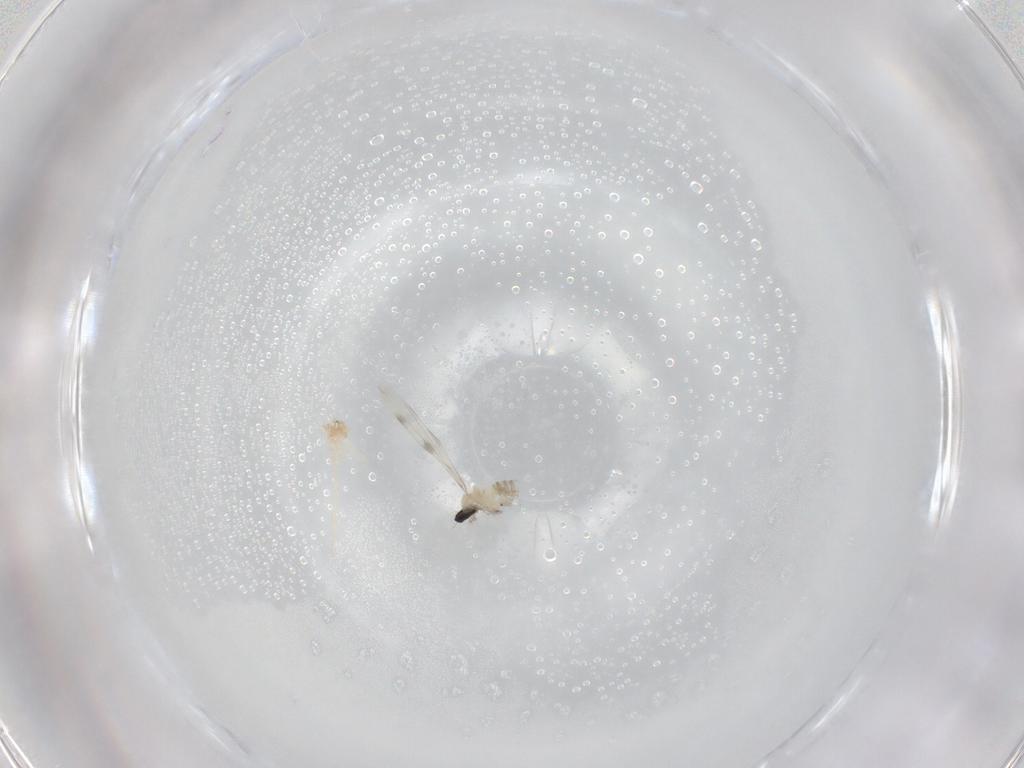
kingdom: Animalia
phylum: Arthropoda
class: Insecta
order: Diptera
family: Cecidomyiidae
